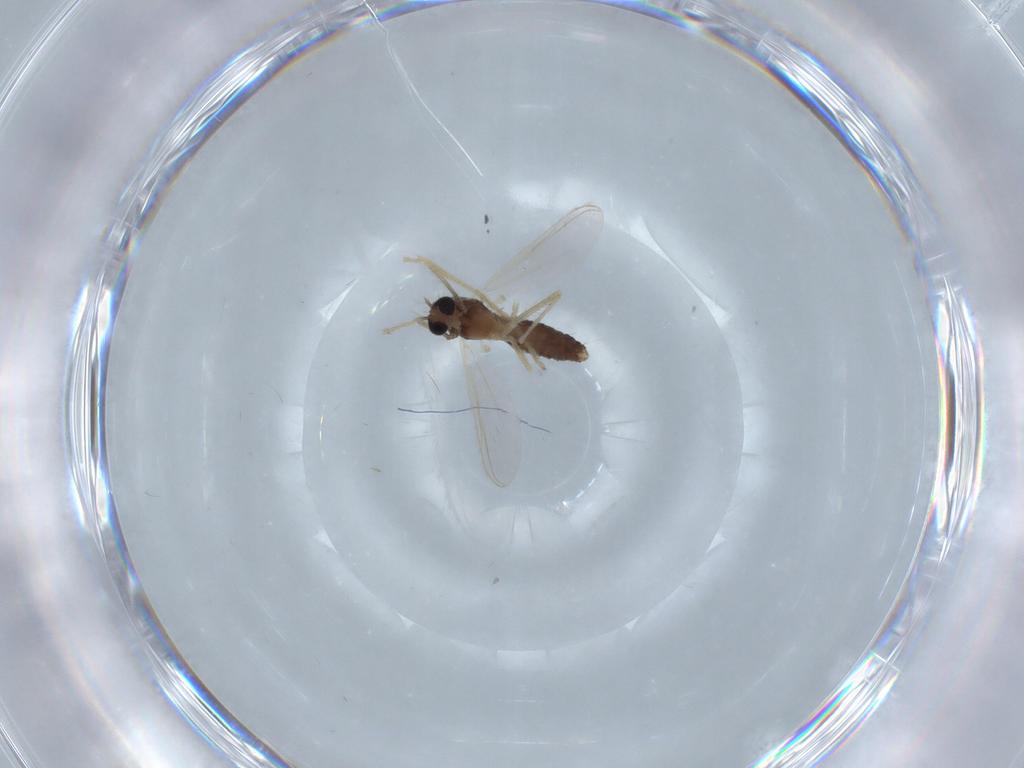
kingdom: Animalia
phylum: Arthropoda
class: Insecta
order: Diptera
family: Chironomidae
